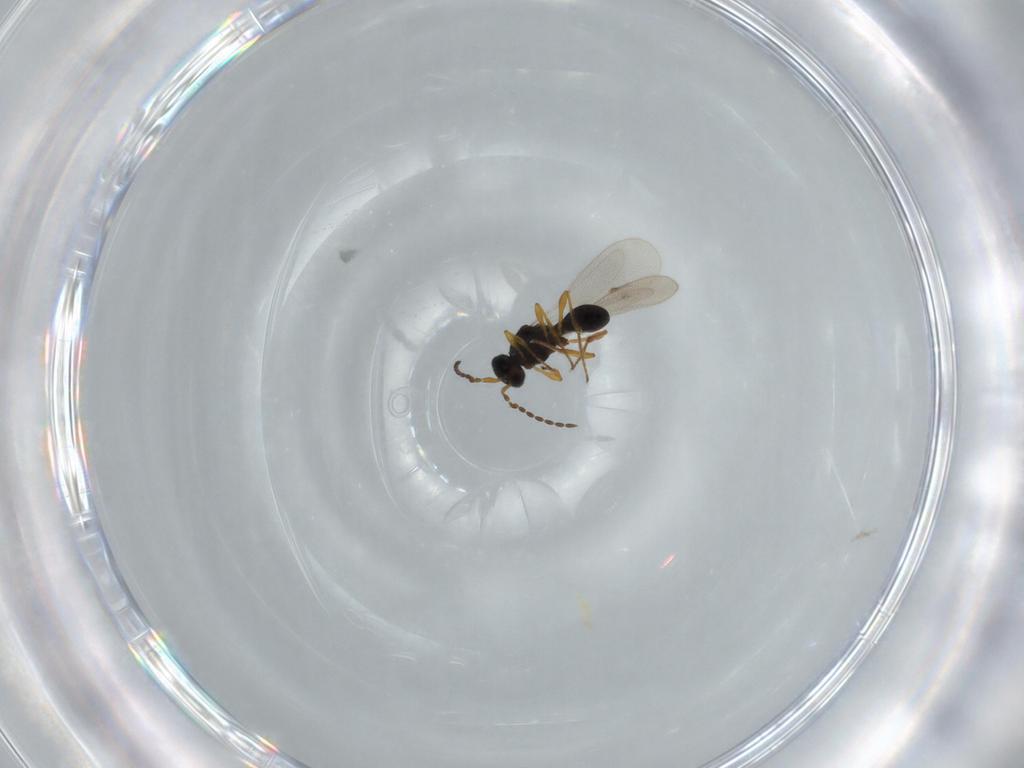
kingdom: Animalia
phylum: Arthropoda
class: Insecta
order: Diptera
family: Mythicomyiidae
